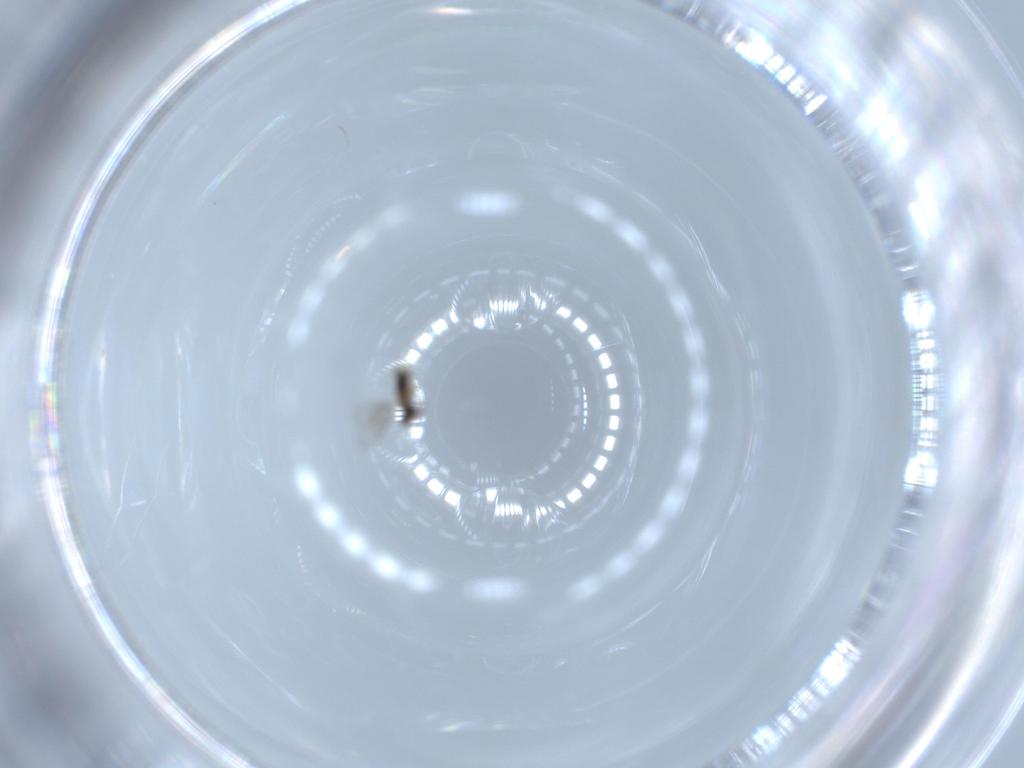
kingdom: Animalia
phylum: Arthropoda
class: Insecta
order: Hymenoptera
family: Aphelinidae
